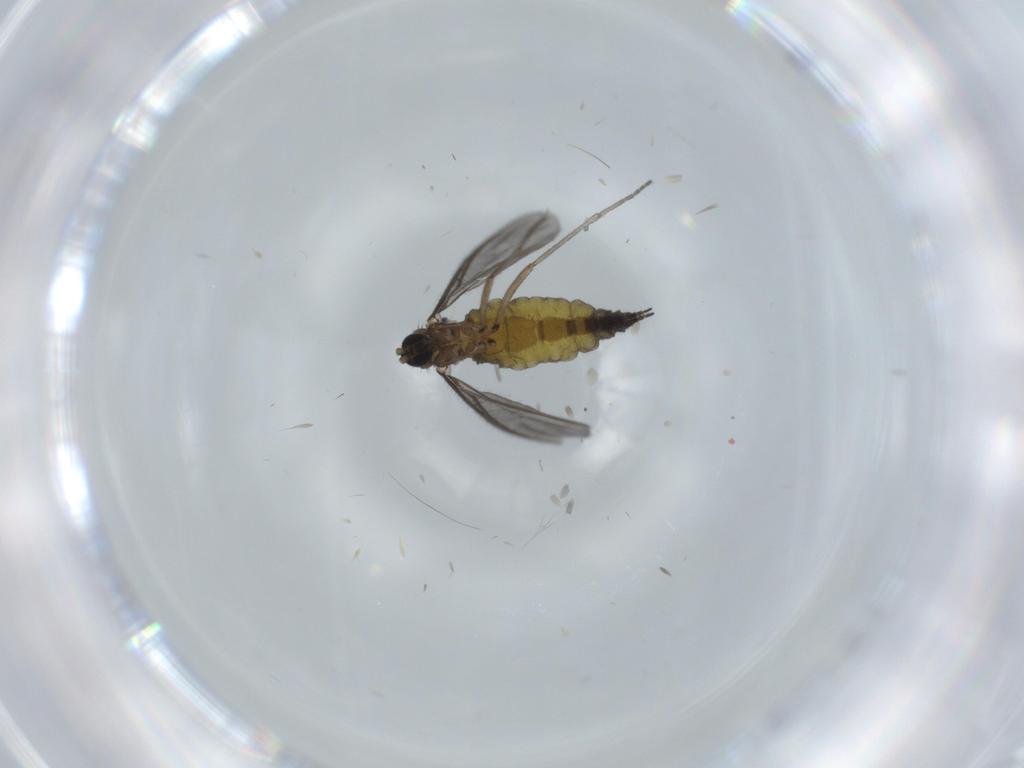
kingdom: Animalia
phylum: Arthropoda
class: Insecta
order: Diptera
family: Sciaridae
